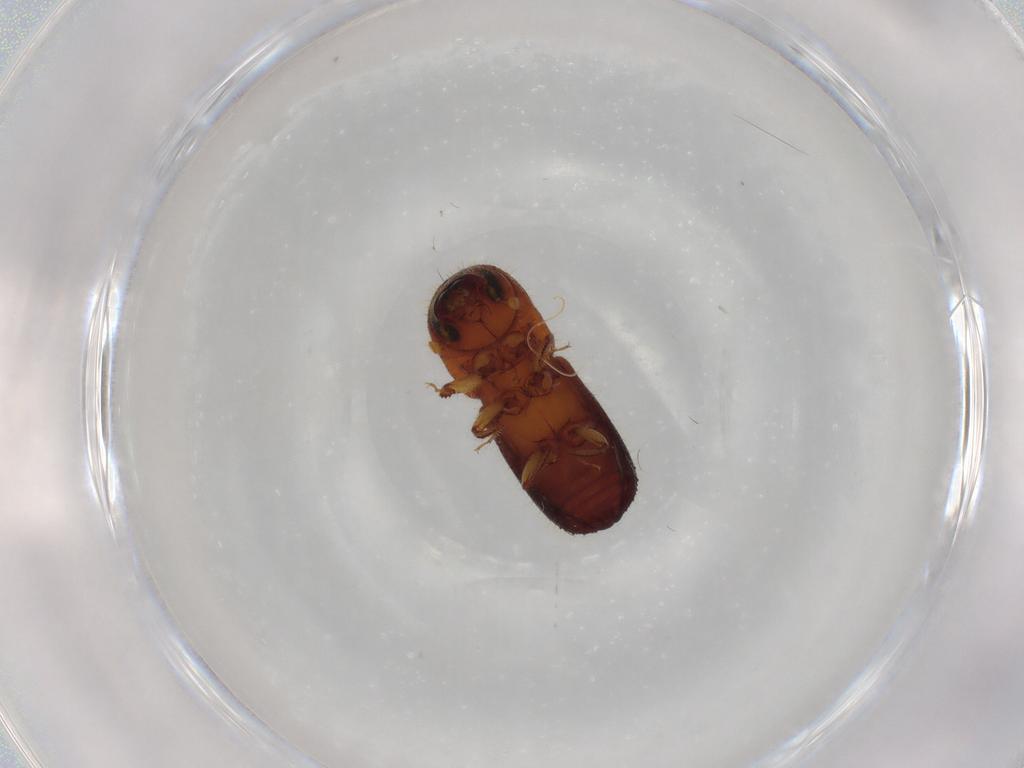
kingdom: Animalia
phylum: Arthropoda
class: Insecta
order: Coleoptera
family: Curculionidae
